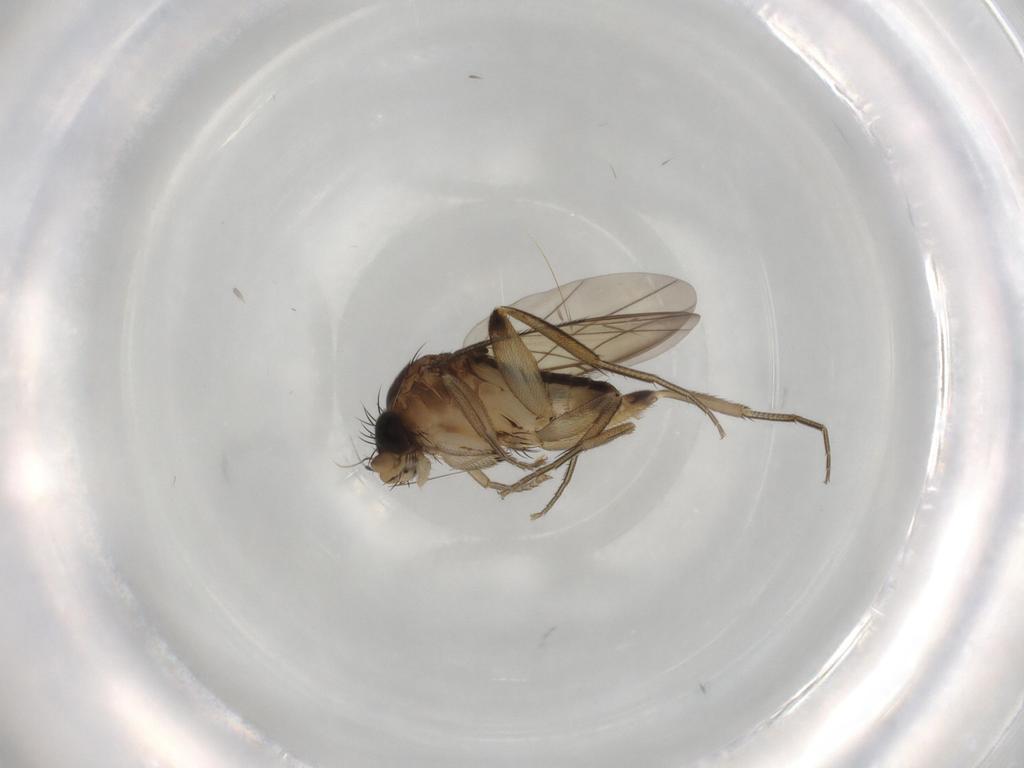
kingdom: Animalia
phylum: Arthropoda
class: Insecta
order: Diptera
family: Phoridae
